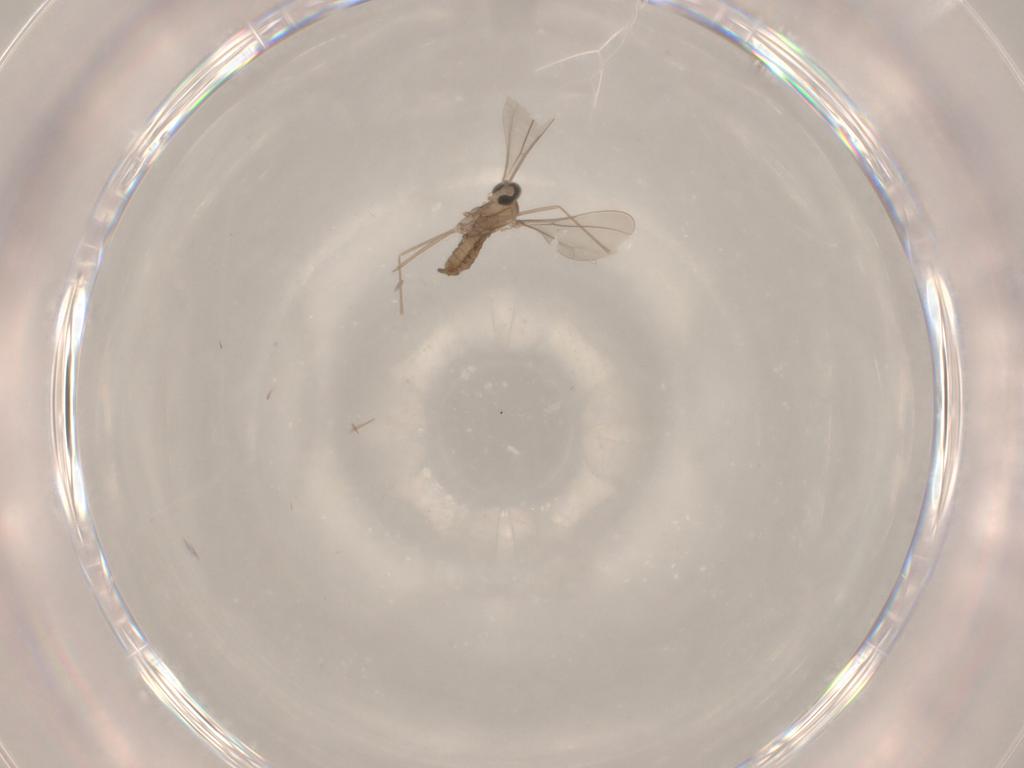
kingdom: Animalia
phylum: Arthropoda
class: Insecta
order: Diptera
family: Cecidomyiidae
